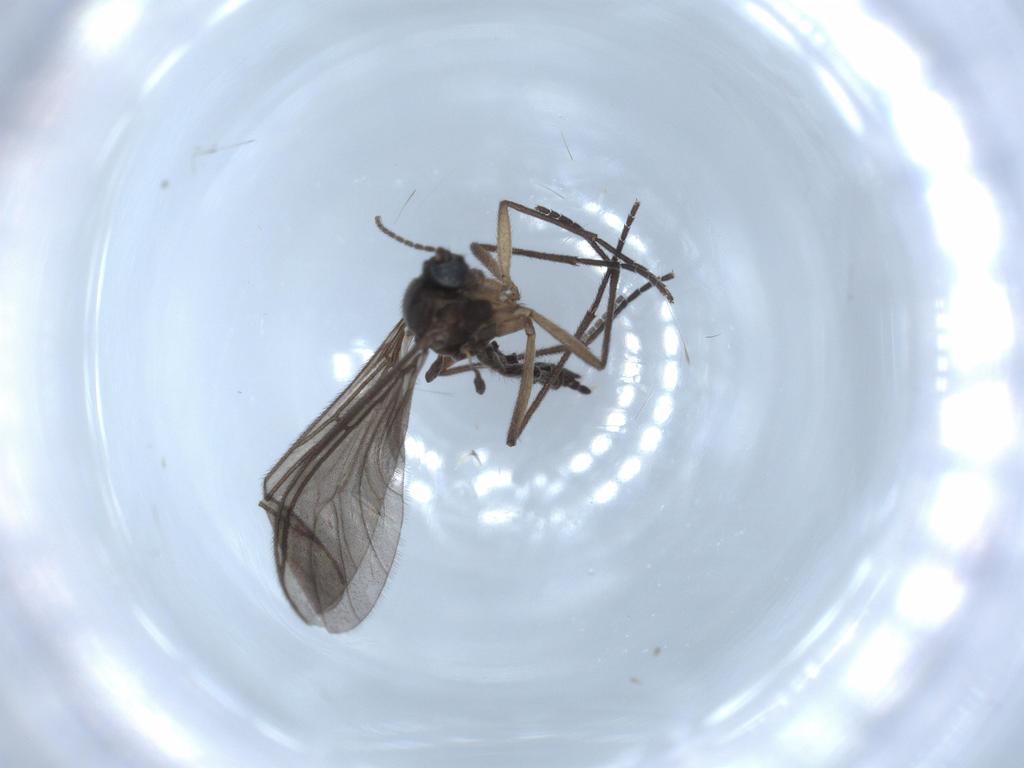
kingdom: Animalia
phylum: Arthropoda
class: Insecta
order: Diptera
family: Sciaridae
